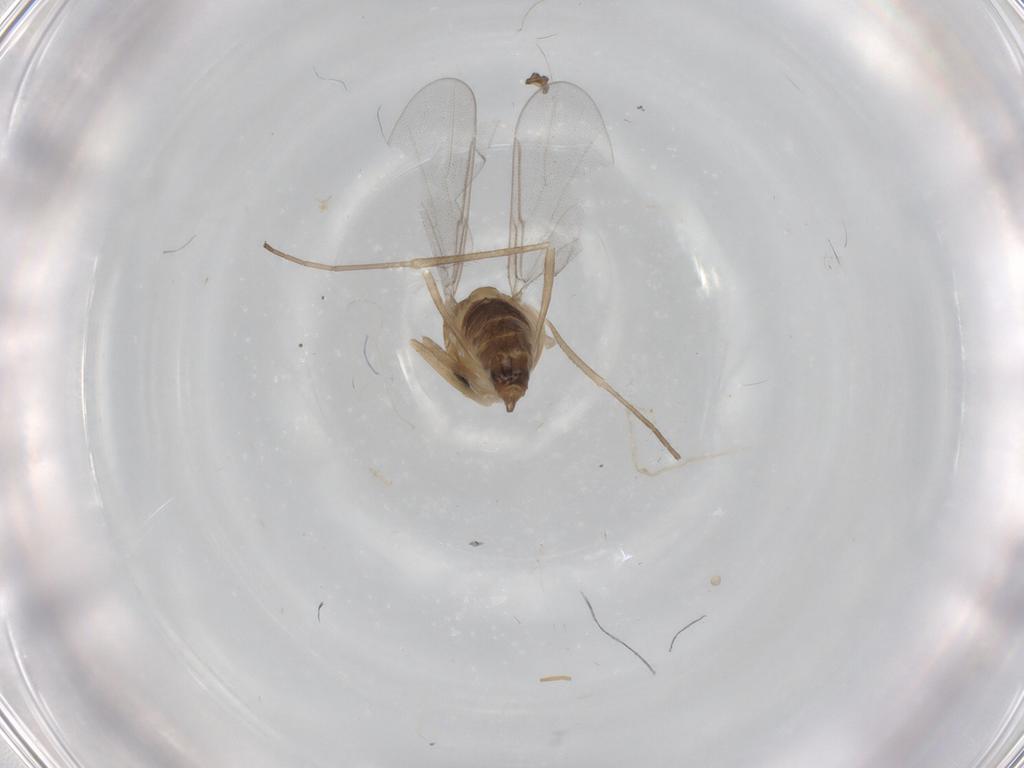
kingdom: Animalia
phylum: Arthropoda
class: Insecta
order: Diptera
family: Cecidomyiidae
